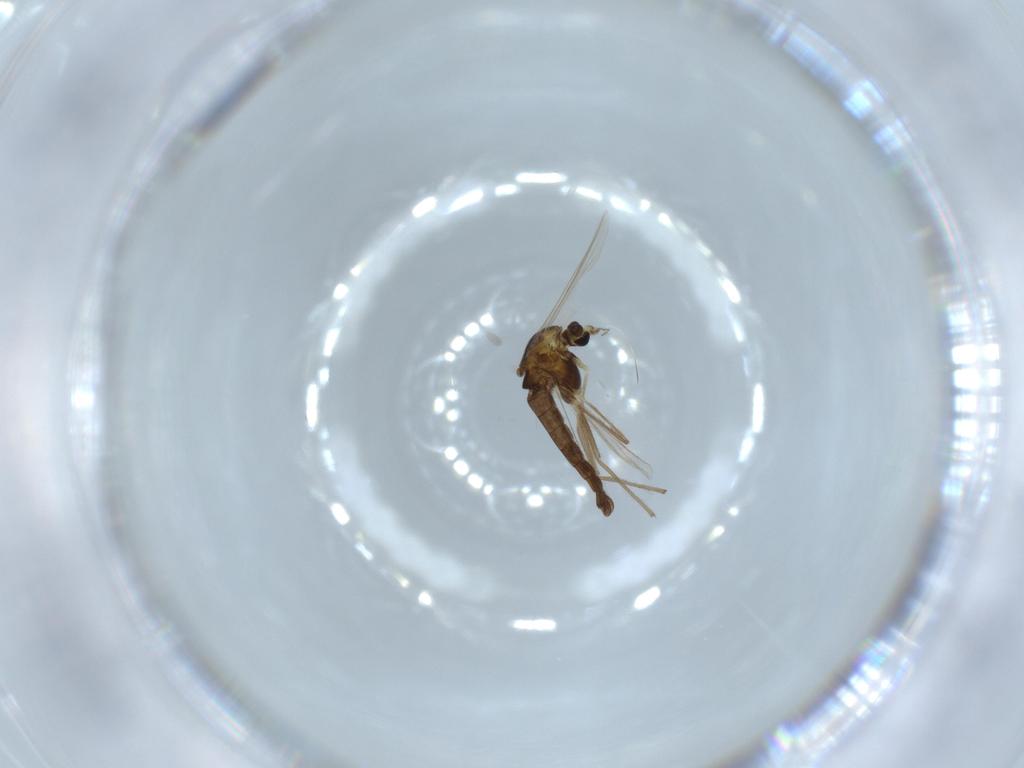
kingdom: Animalia
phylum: Arthropoda
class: Insecta
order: Diptera
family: Chironomidae
